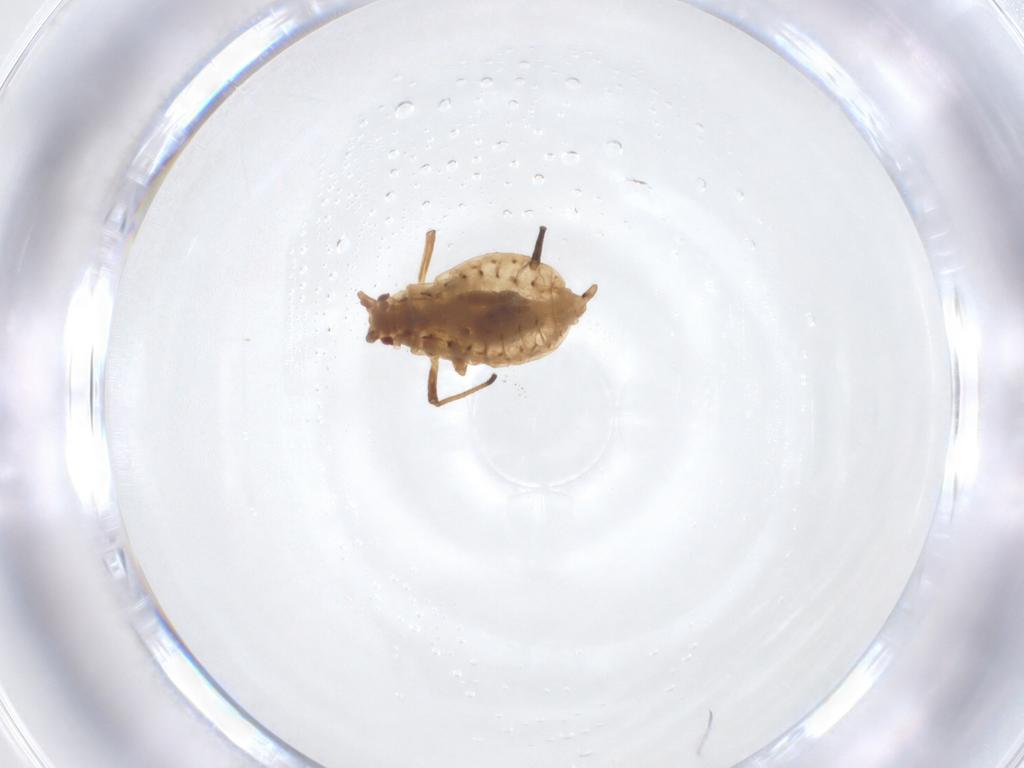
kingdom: Animalia
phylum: Arthropoda
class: Insecta
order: Hemiptera
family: Aphididae
